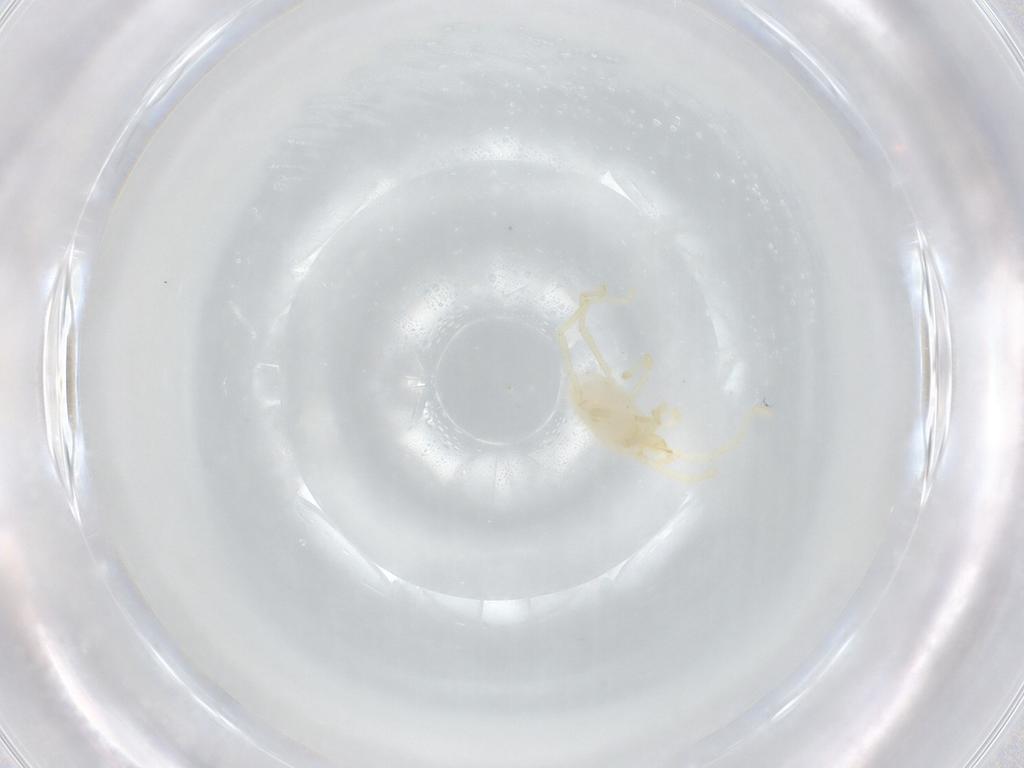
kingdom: Animalia
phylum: Arthropoda
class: Arachnida
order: Trombidiformes
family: Erythraeidae
